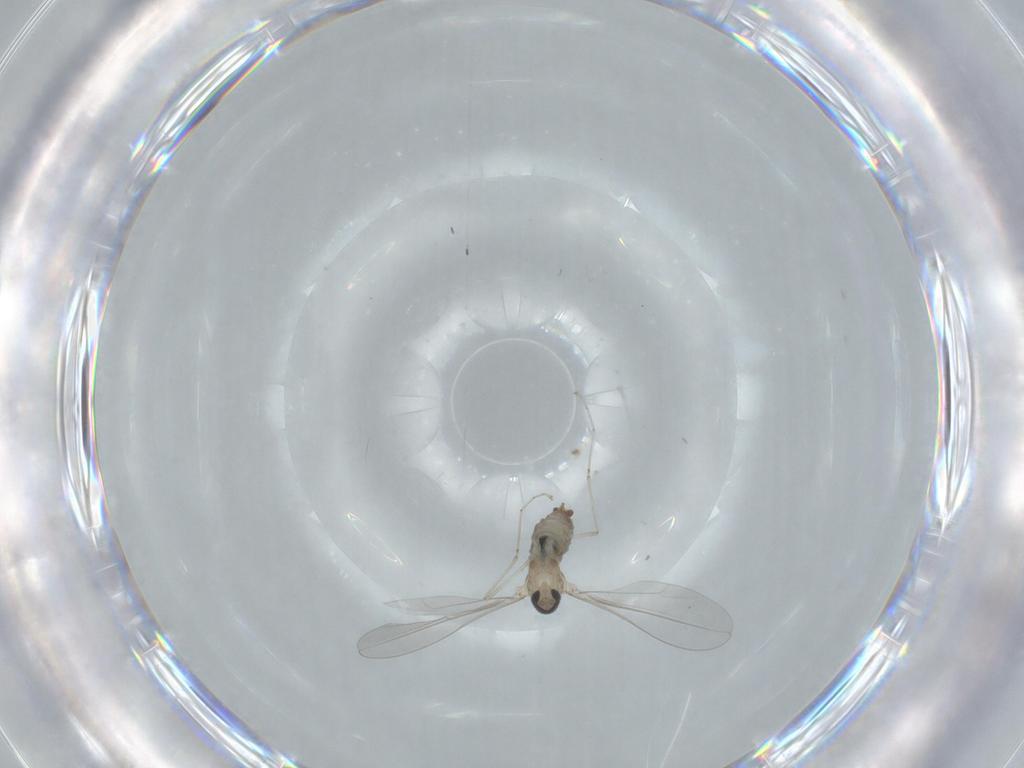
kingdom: Animalia
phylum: Arthropoda
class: Insecta
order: Diptera
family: Cecidomyiidae
